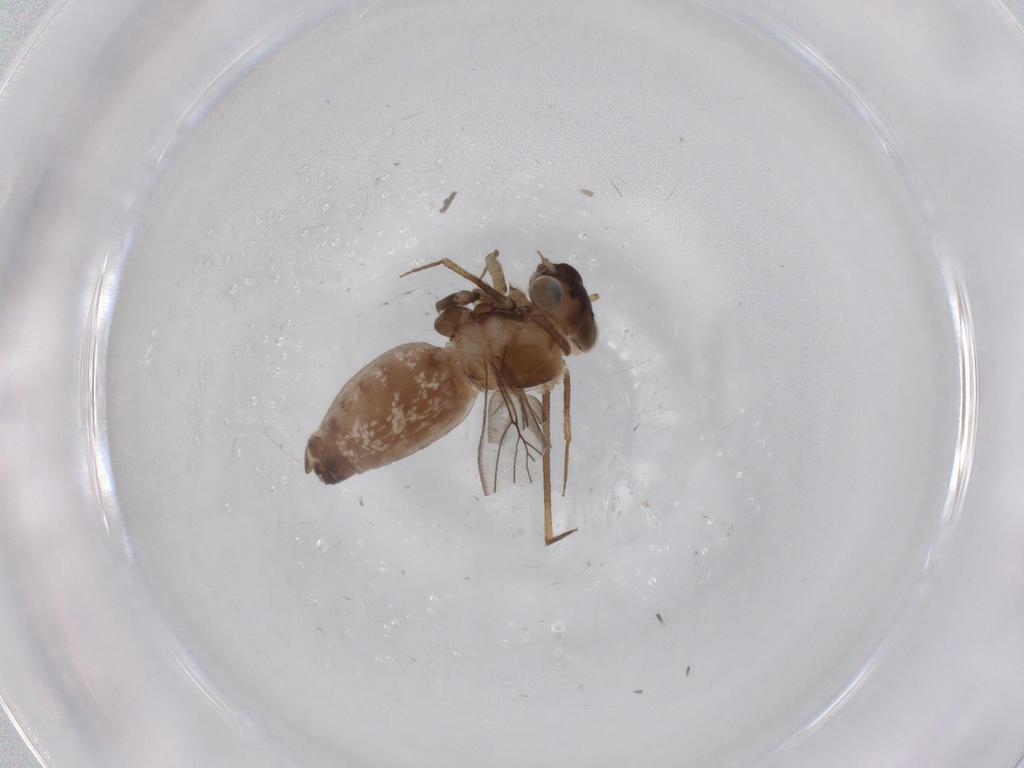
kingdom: Animalia
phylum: Arthropoda
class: Insecta
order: Psocodea
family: Lepidopsocidae
